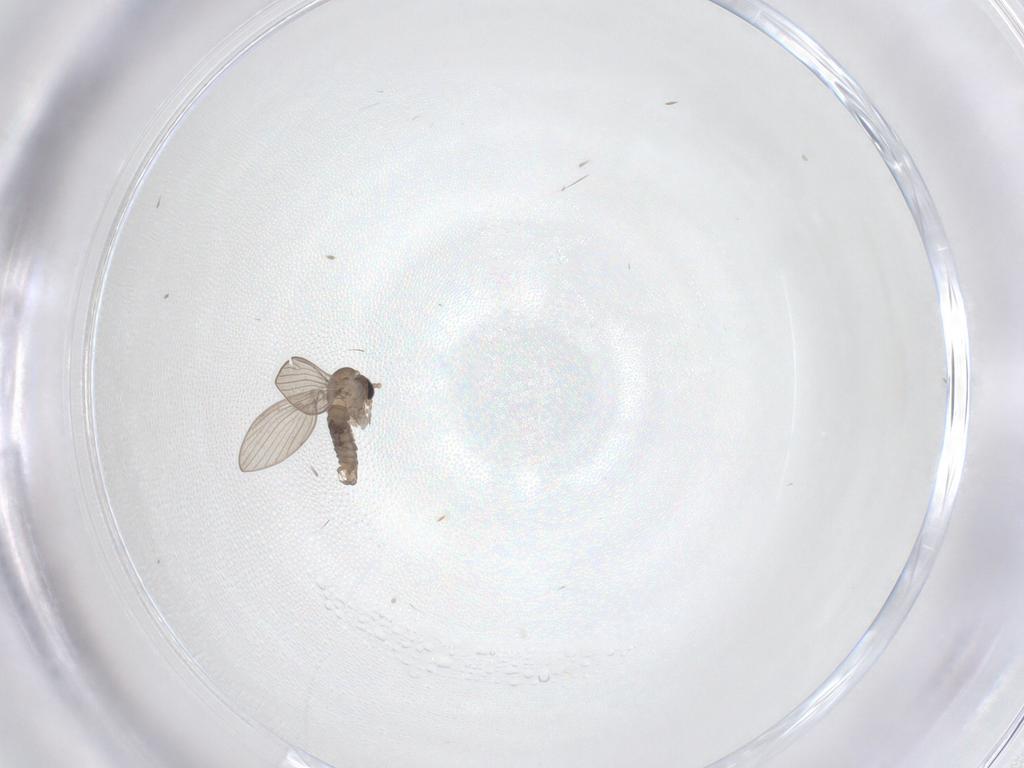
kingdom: Animalia
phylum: Arthropoda
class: Insecta
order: Diptera
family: Psychodidae
